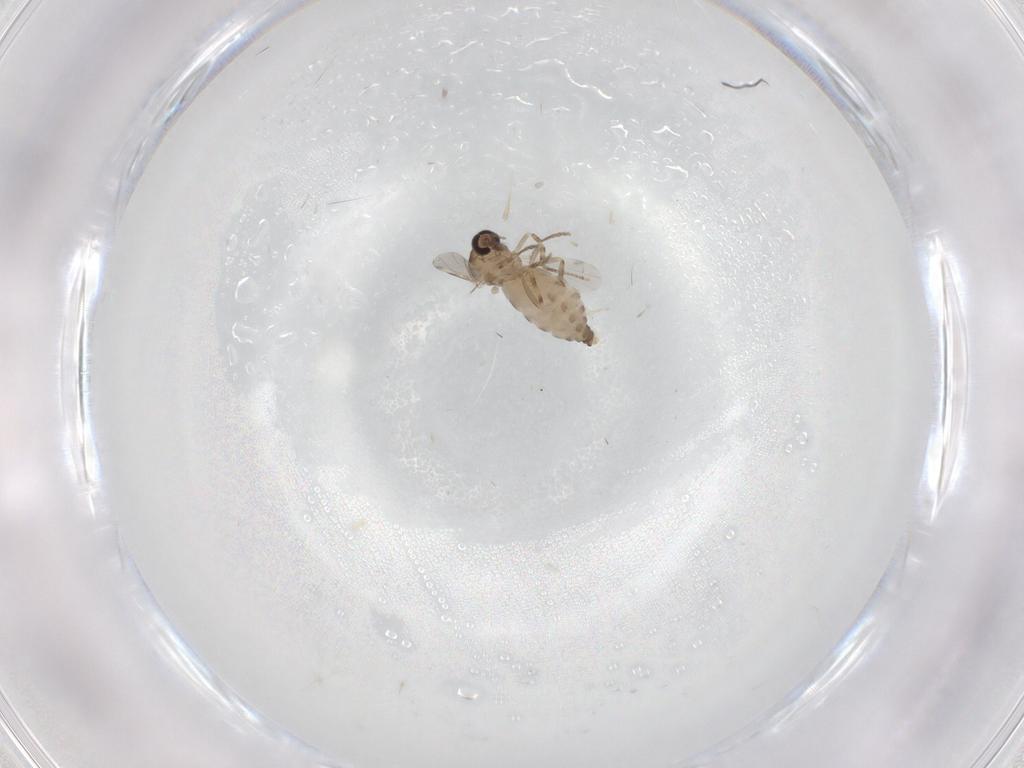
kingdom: Animalia
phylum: Arthropoda
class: Insecta
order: Diptera
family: Ceratopogonidae
